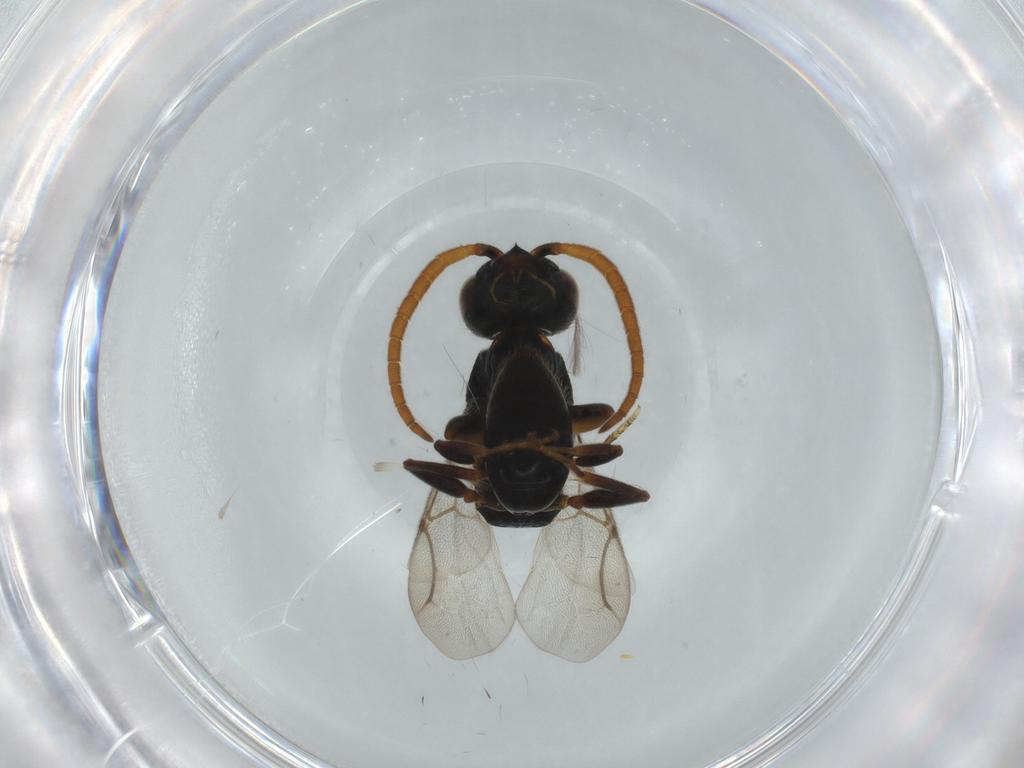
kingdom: Animalia
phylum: Arthropoda
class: Insecta
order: Hymenoptera
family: Bethylidae
